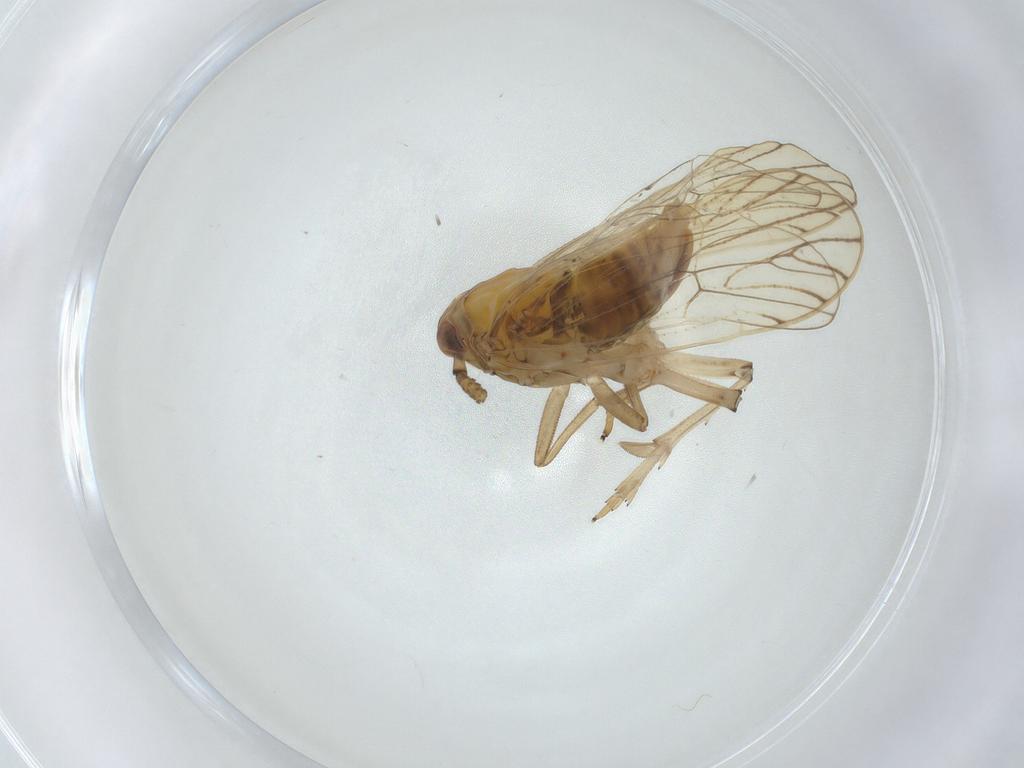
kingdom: Animalia
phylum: Arthropoda
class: Insecta
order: Hemiptera
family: Delphacidae
